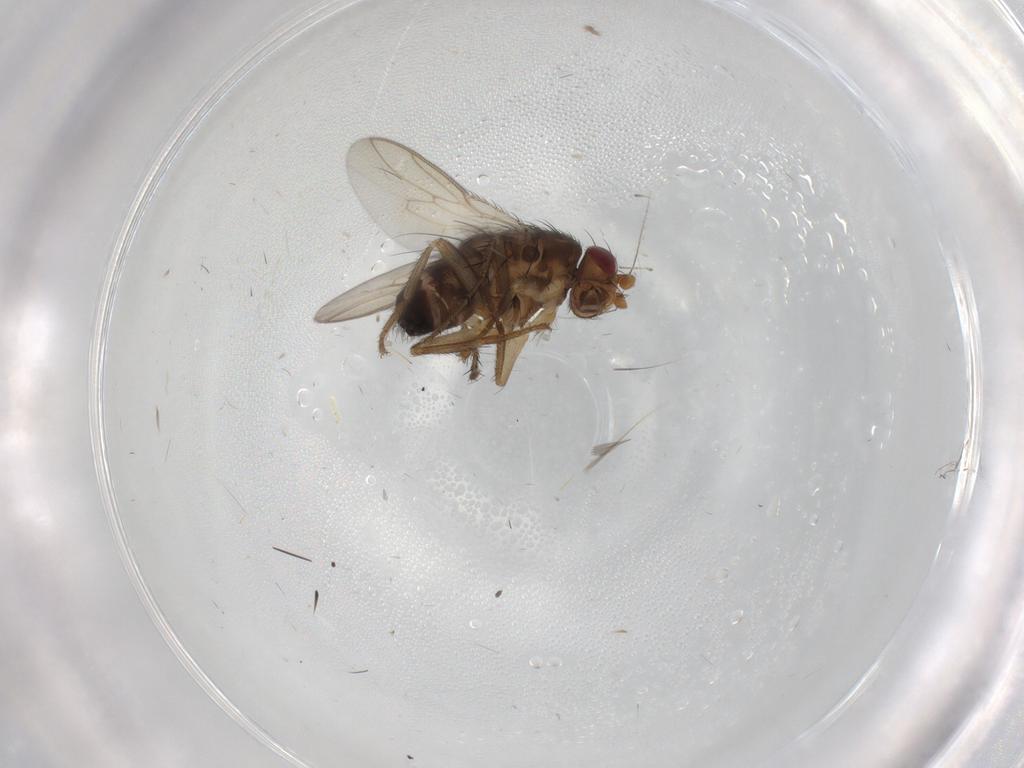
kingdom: Animalia
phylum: Arthropoda
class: Insecta
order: Diptera
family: Sphaeroceridae
